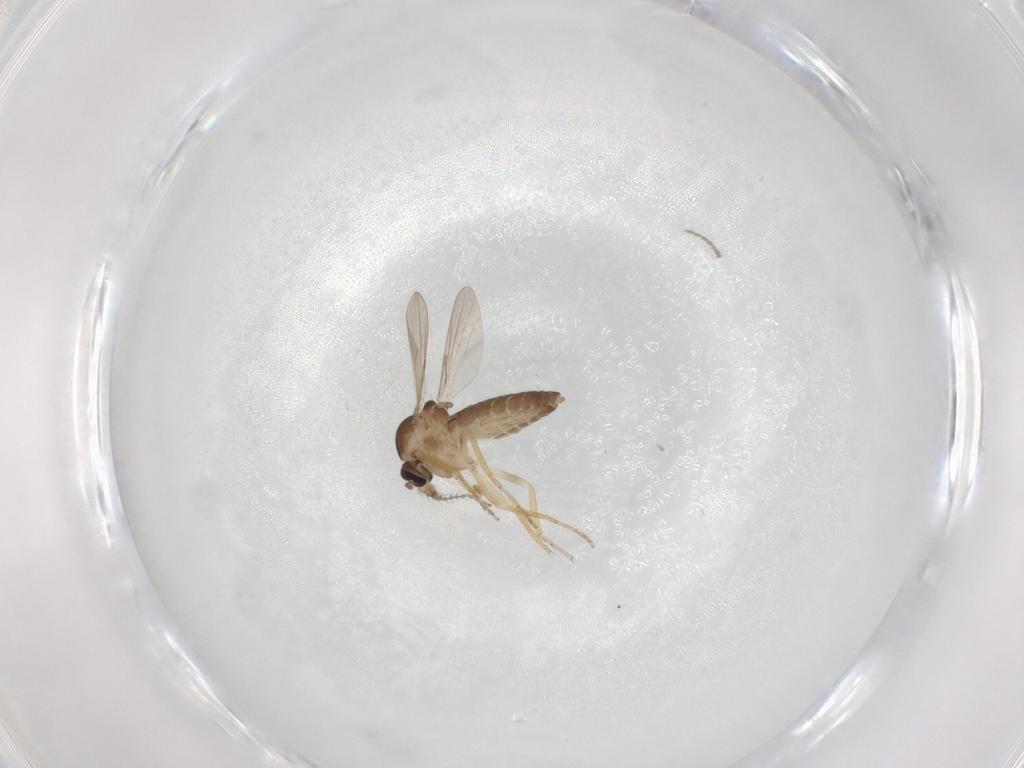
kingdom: Animalia
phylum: Arthropoda
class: Insecta
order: Diptera
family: Ceratopogonidae
